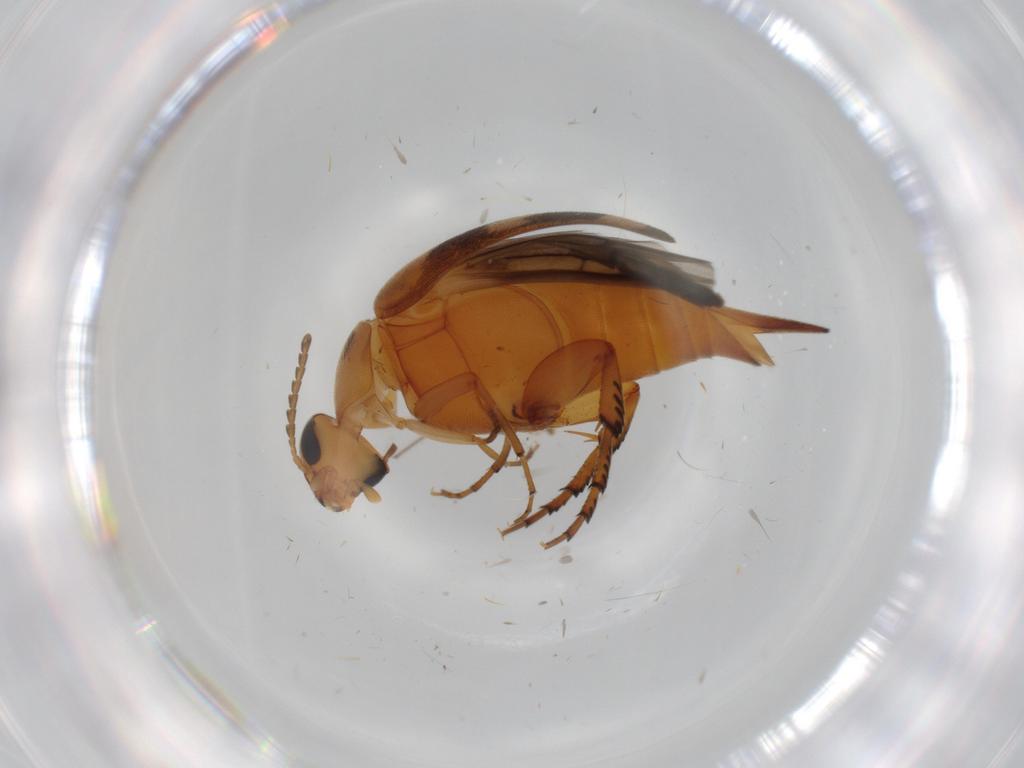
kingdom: Animalia
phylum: Arthropoda
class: Insecta
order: Coleoptera
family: Mordellidae
